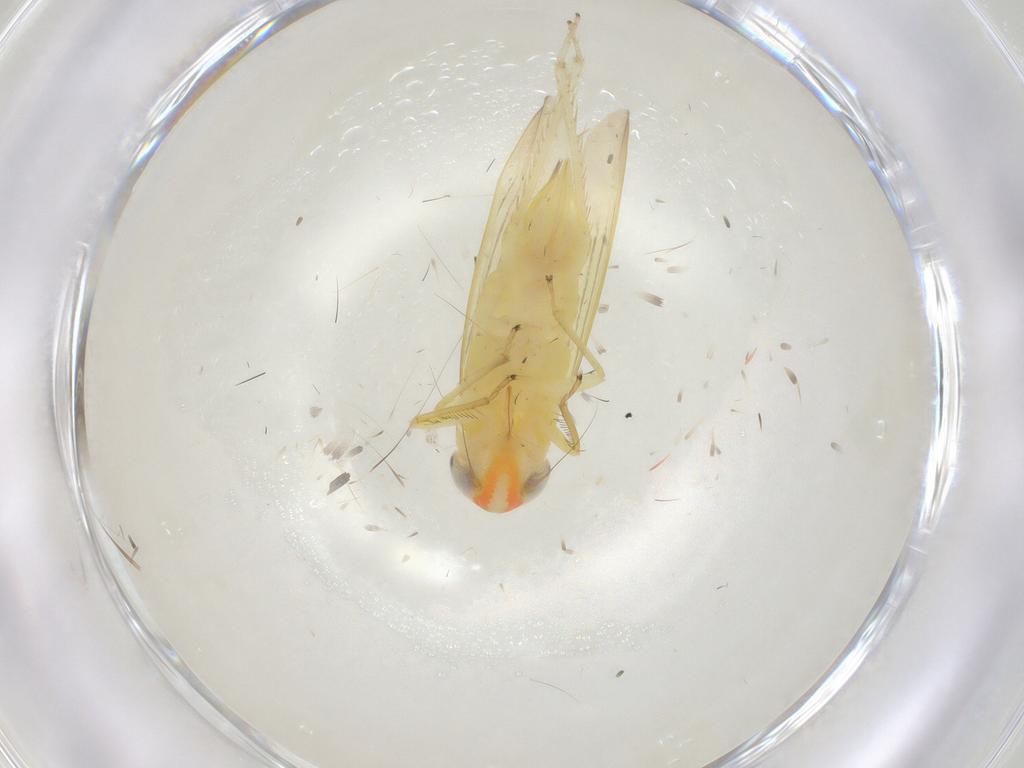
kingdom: Animalia
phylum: Arthropoda
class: Insecta
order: Hemiptera
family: Cicadellidae
